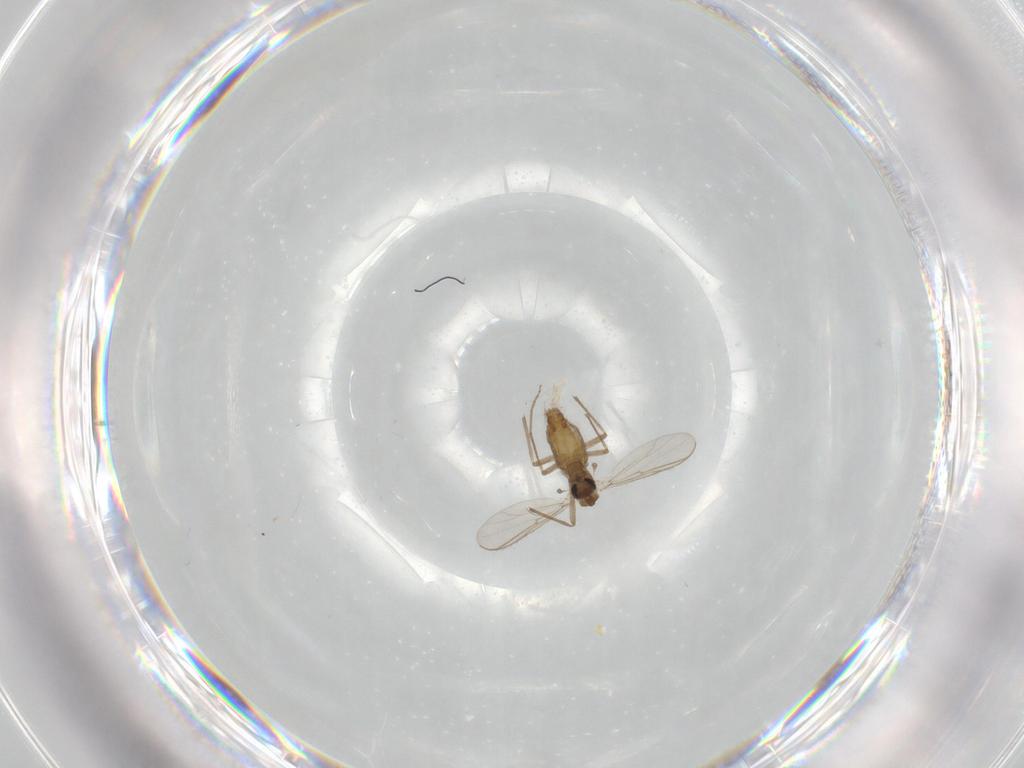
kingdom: Animalia
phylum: Arthropoda
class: Insecta
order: Diptera
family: Chironomidae
